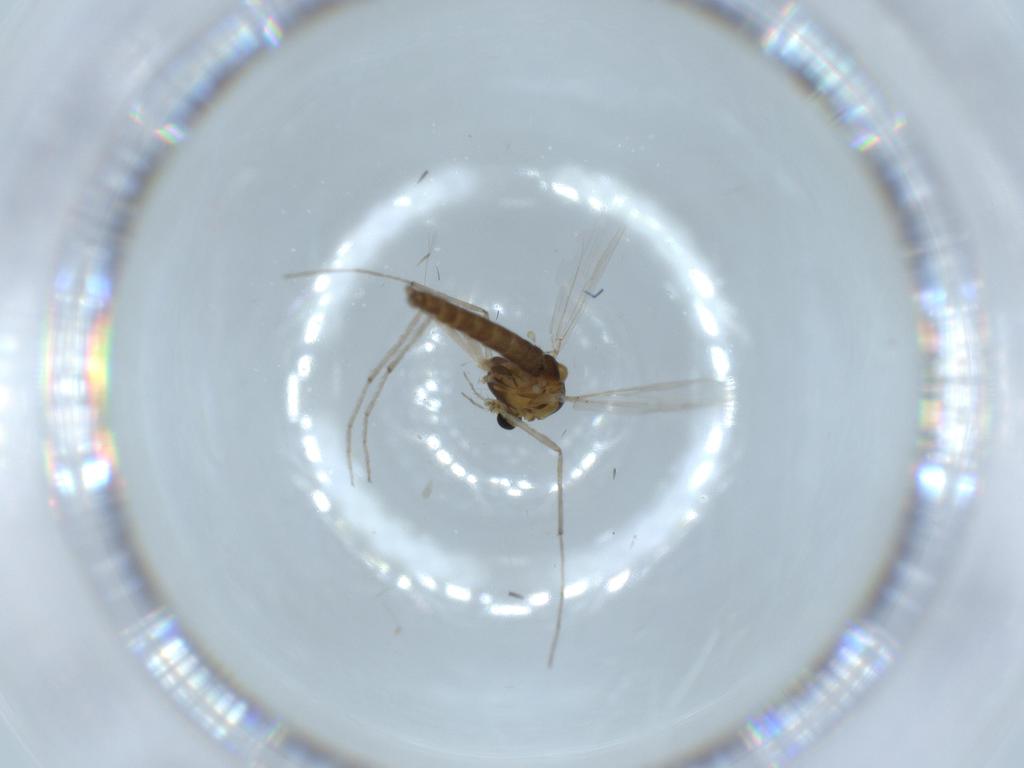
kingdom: Animalia
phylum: Arthropoda
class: Insecta
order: Diptera
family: Chironomidae
